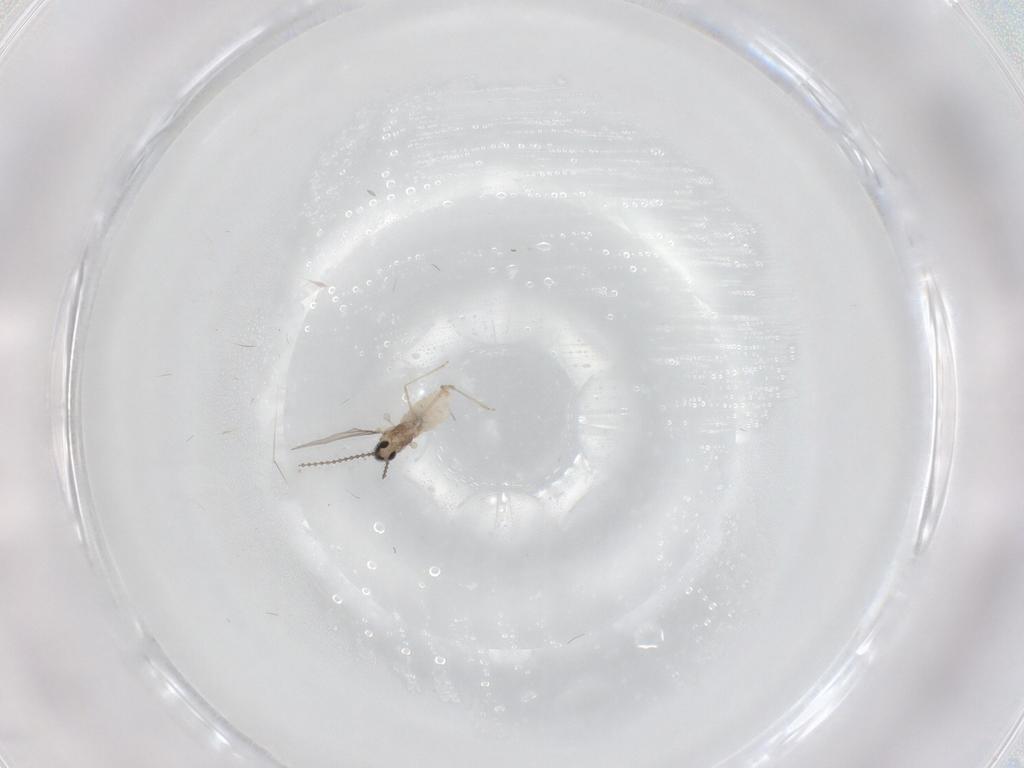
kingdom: Animalia
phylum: Arthropoda
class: Insecta
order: Diptera
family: Cecidomyiidae
